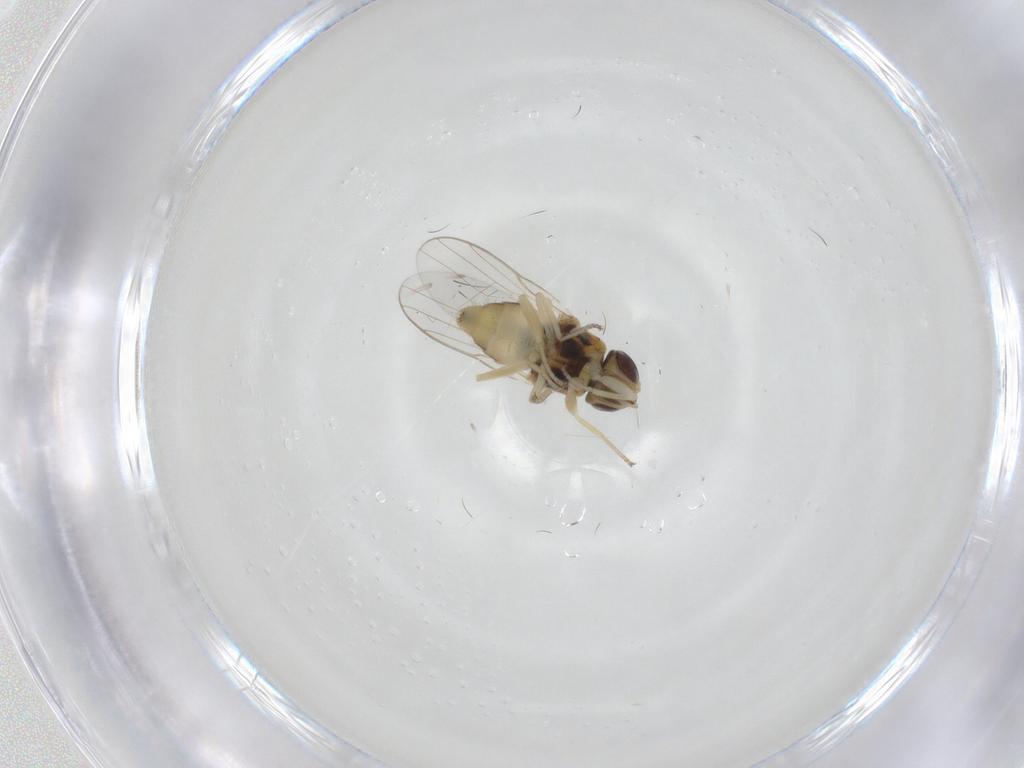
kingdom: Animalia
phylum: Arthropoda
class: Insecta
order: Diptera
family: Chloropidae
